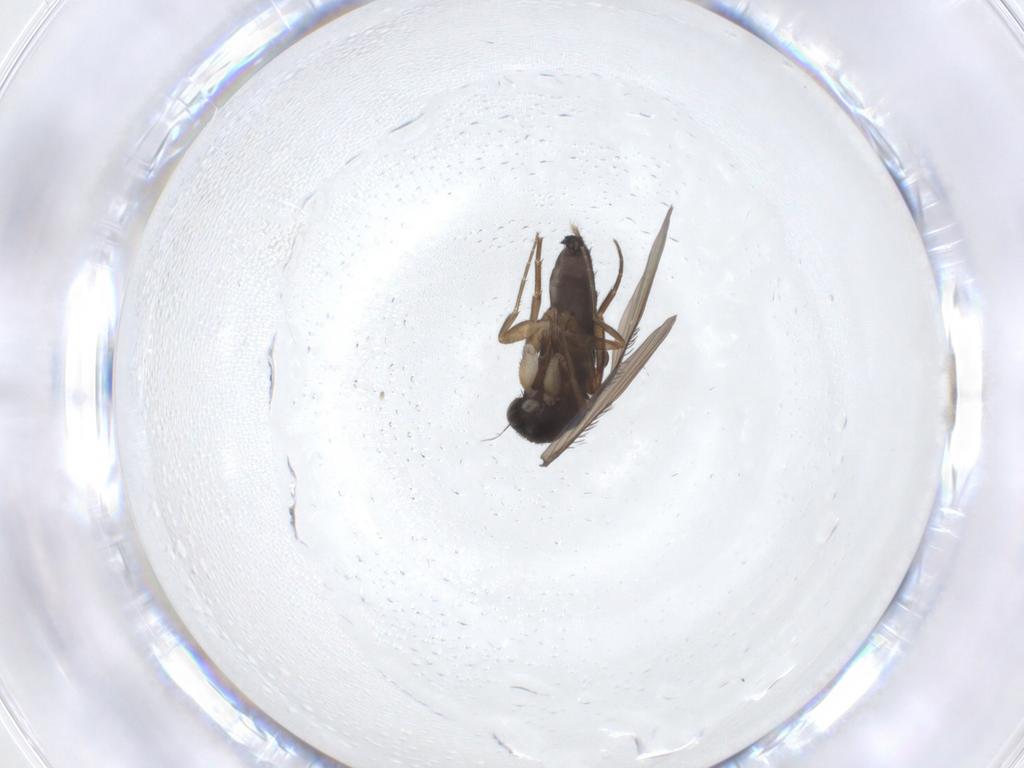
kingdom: Animalia
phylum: Arthropoda
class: Insecta
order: Diptera
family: Phoridae
